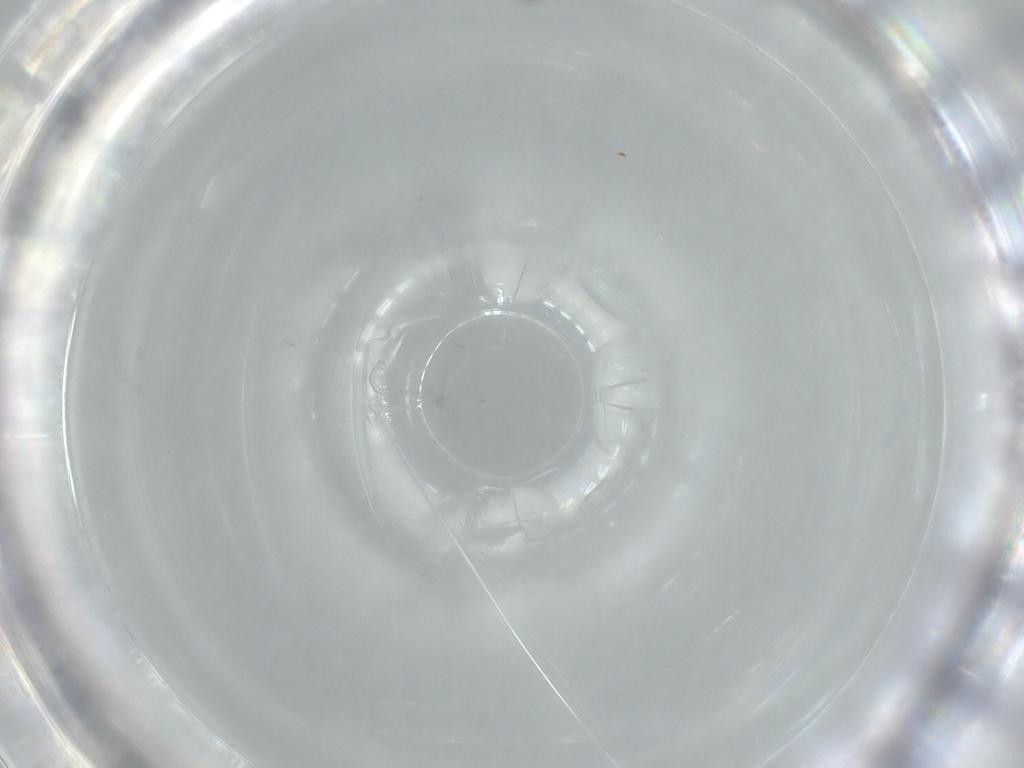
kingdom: Animalia
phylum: Arthropoda
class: Insecta
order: Diptera
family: Cecidomyiidae
